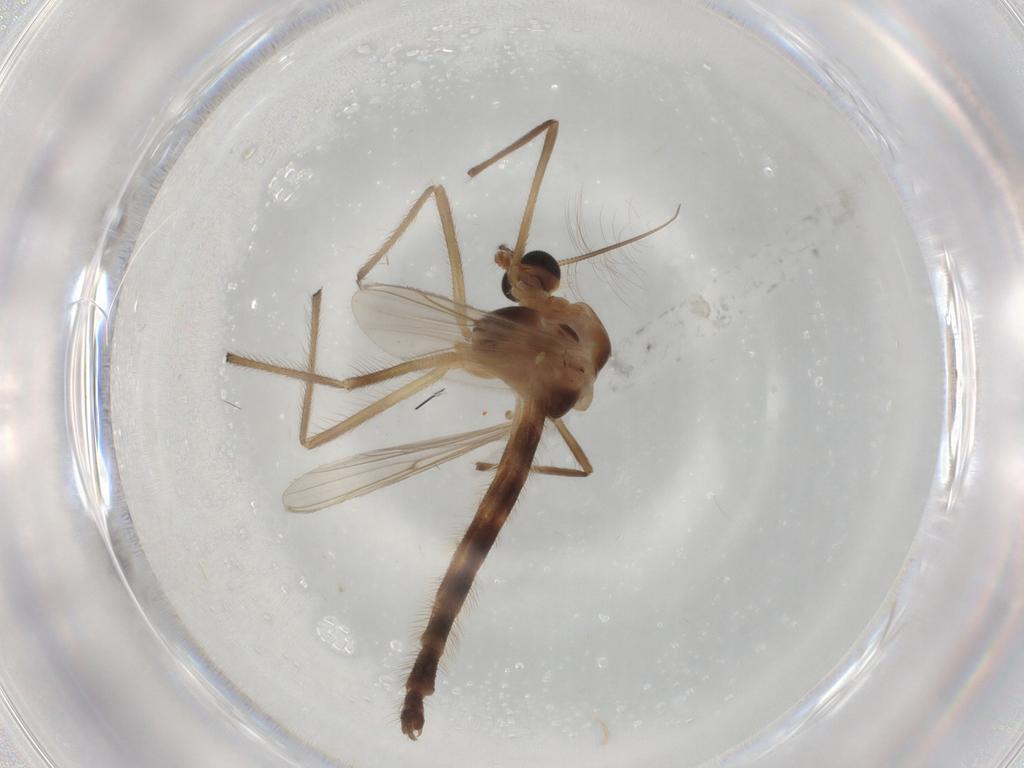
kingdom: Animalia
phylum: Arthropoda
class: Insecta
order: Diptera
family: Chironomidae
